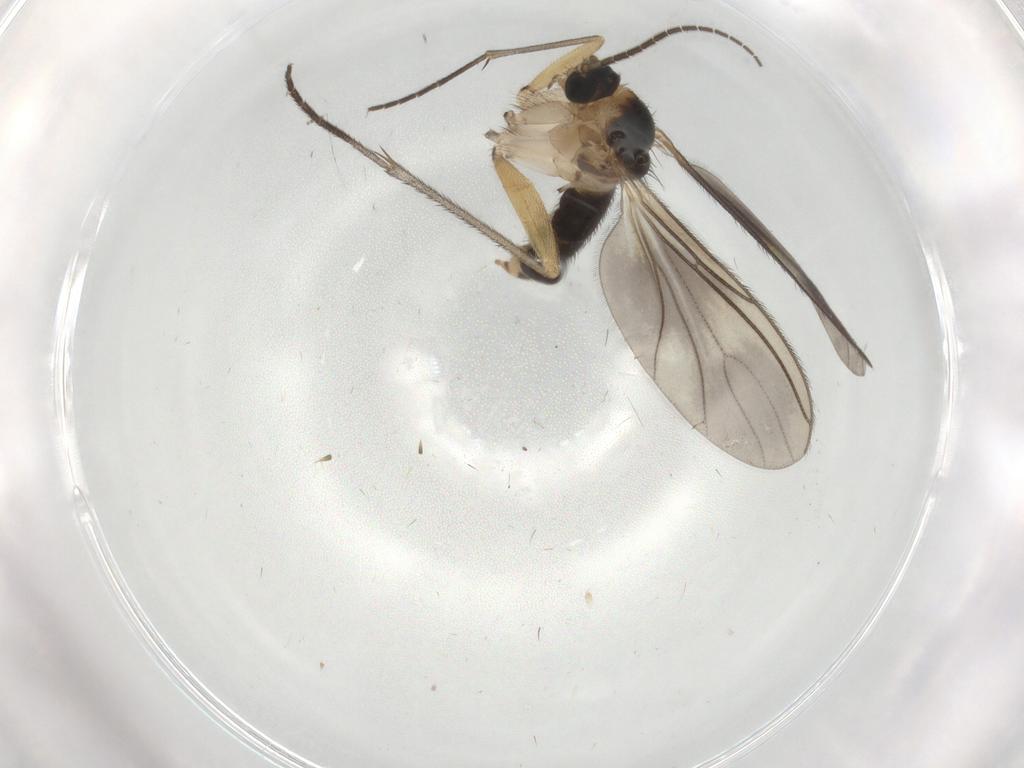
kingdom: Animalia
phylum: Arthropoda
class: Insecta
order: Diptera
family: Sciaridae
